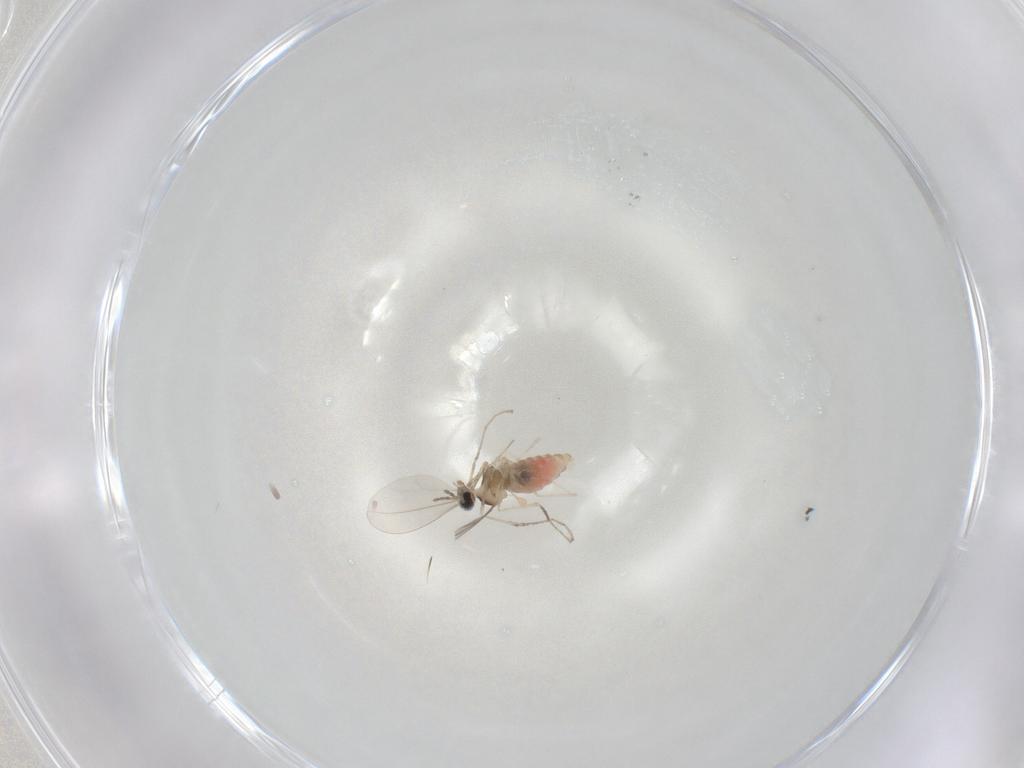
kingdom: Animalia
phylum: Arthropoda
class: Insecta
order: Diptera
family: Cecidomyiidae
